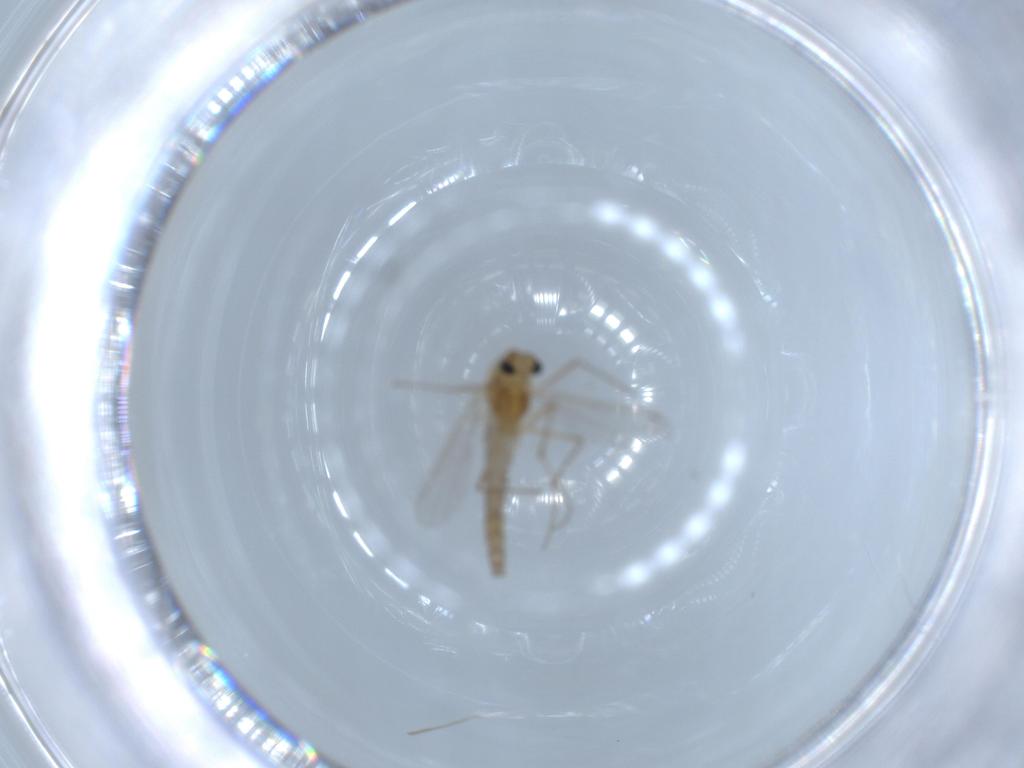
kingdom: Animalia
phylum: Arthropoda
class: Insecta
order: Diptera
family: Chironomidae
